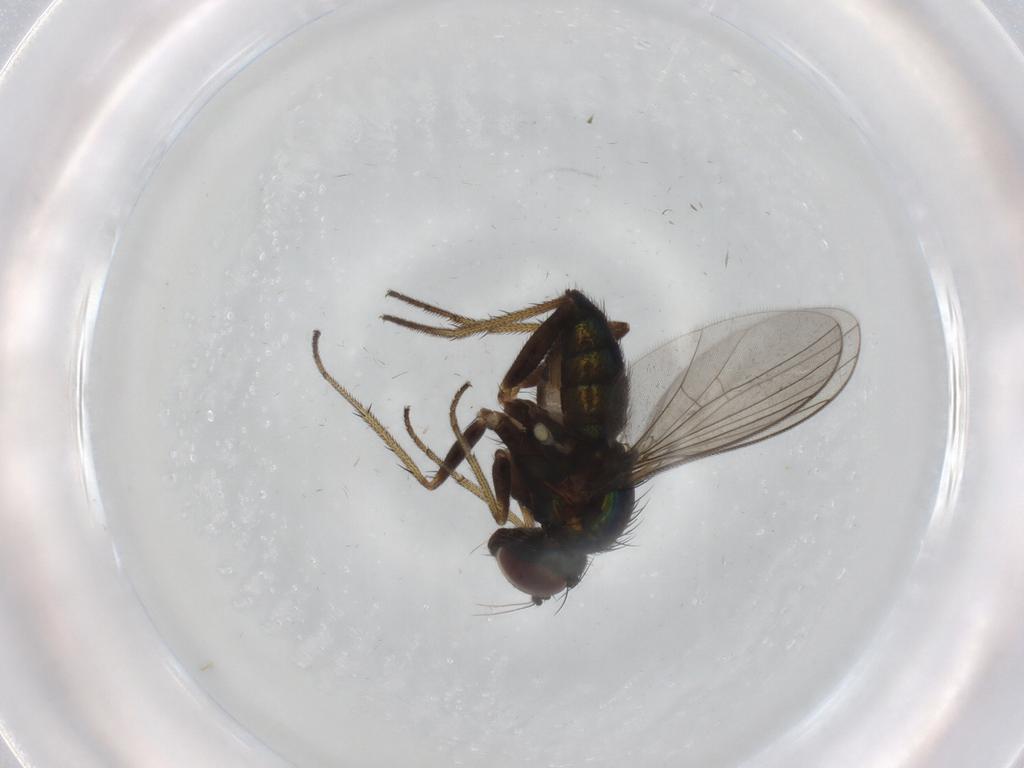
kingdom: Animalia
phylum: Arthropoda
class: Insecta
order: Diptera
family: Dolichopodidae
